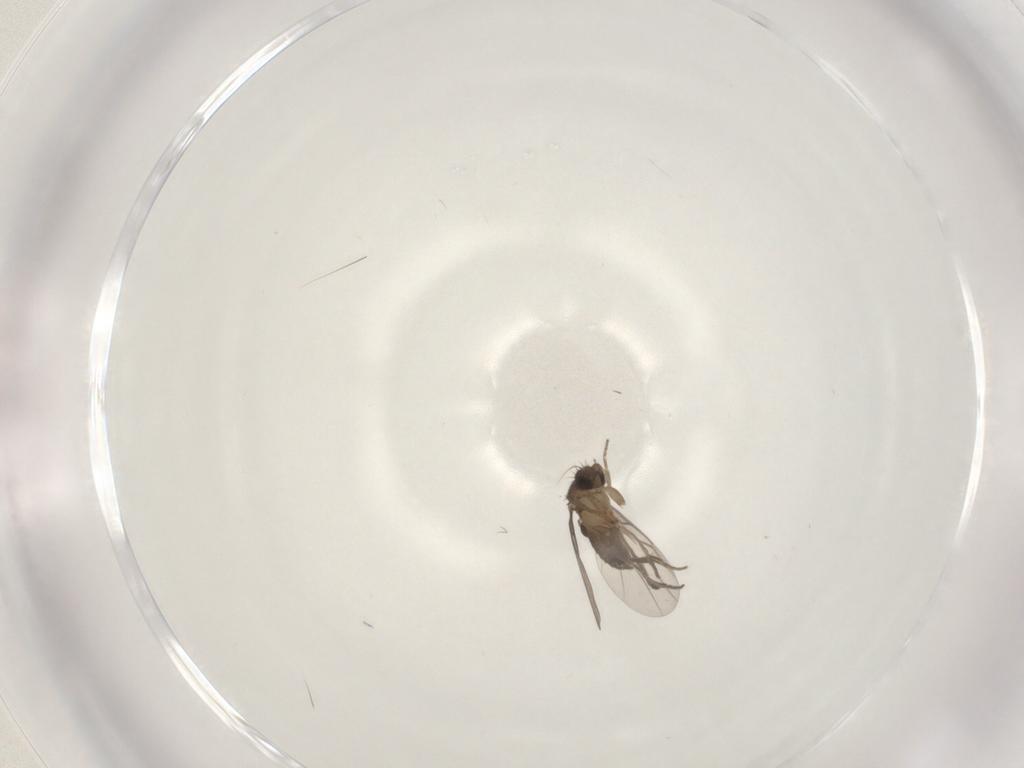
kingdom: Animalia
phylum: Arthropoda
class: Insecta
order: Diptera
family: Phoridae
